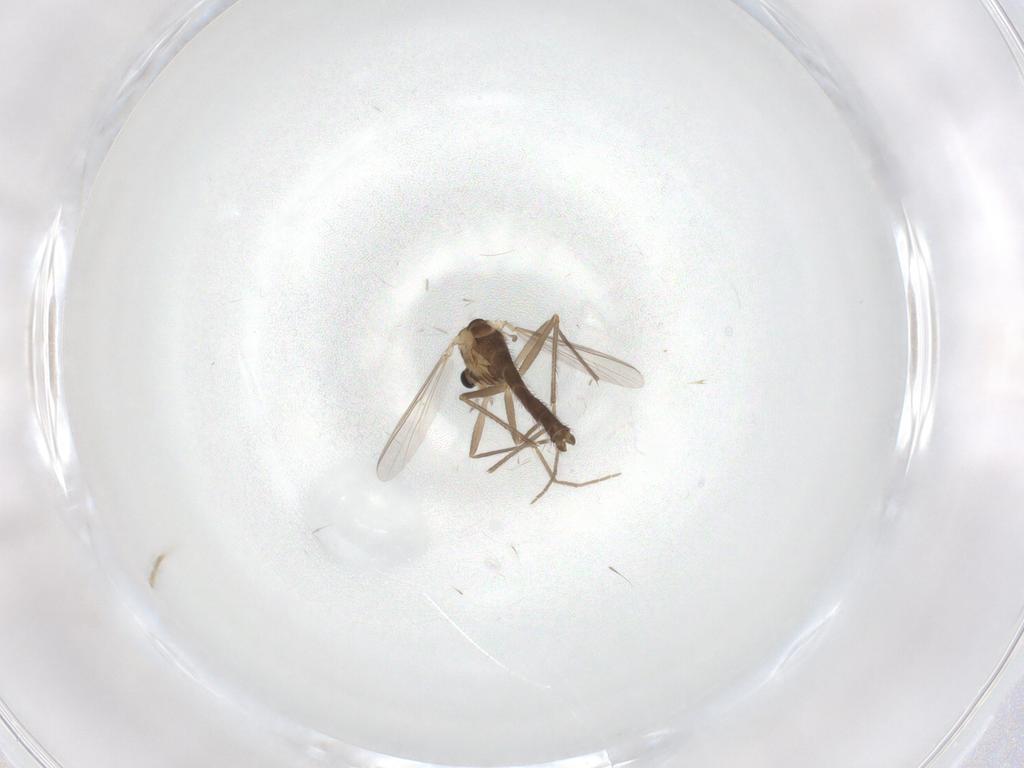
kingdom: Animalia
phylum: Arthropoda
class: Insecta
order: Diptera
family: Chironomidae
